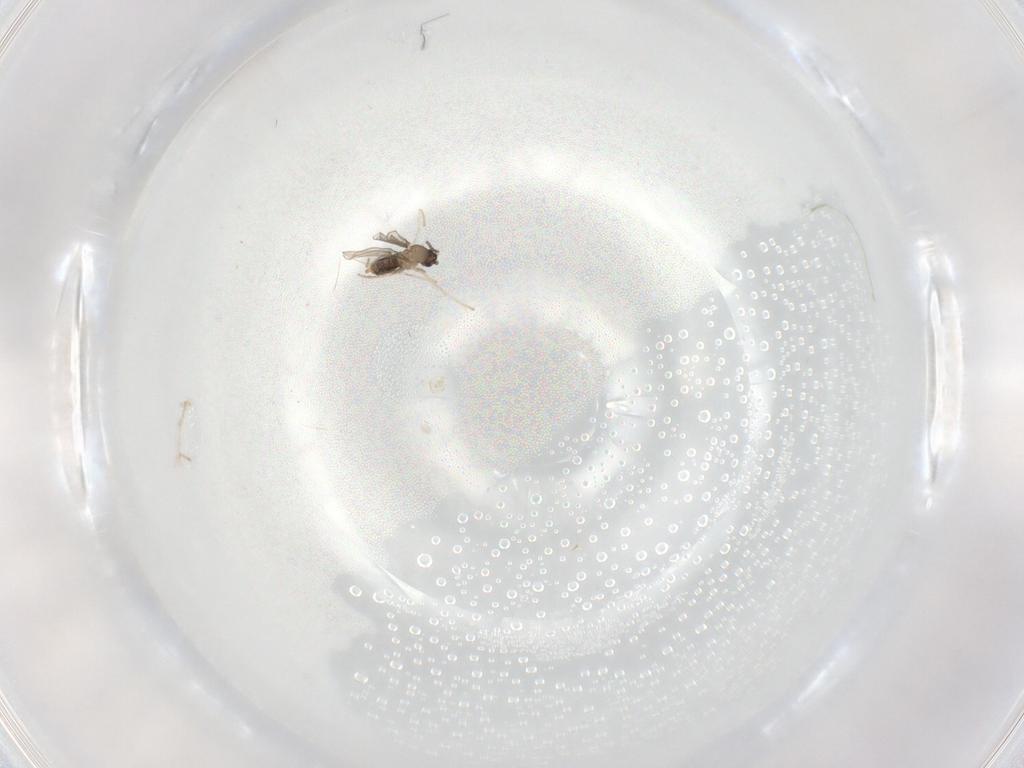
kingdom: Animalia
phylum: Arthropoda
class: Insecta
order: Diptera
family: Cecidomyiidae
